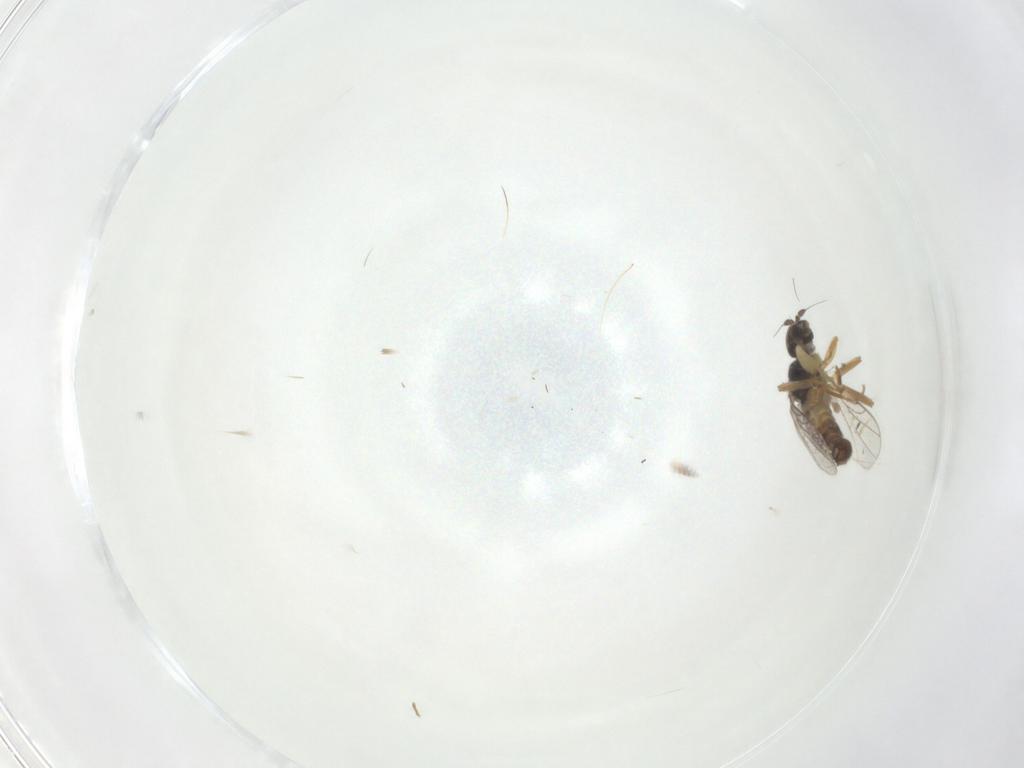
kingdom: Animalia
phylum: Arthropoda
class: Insecta
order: Diptera
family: Hybotidae
